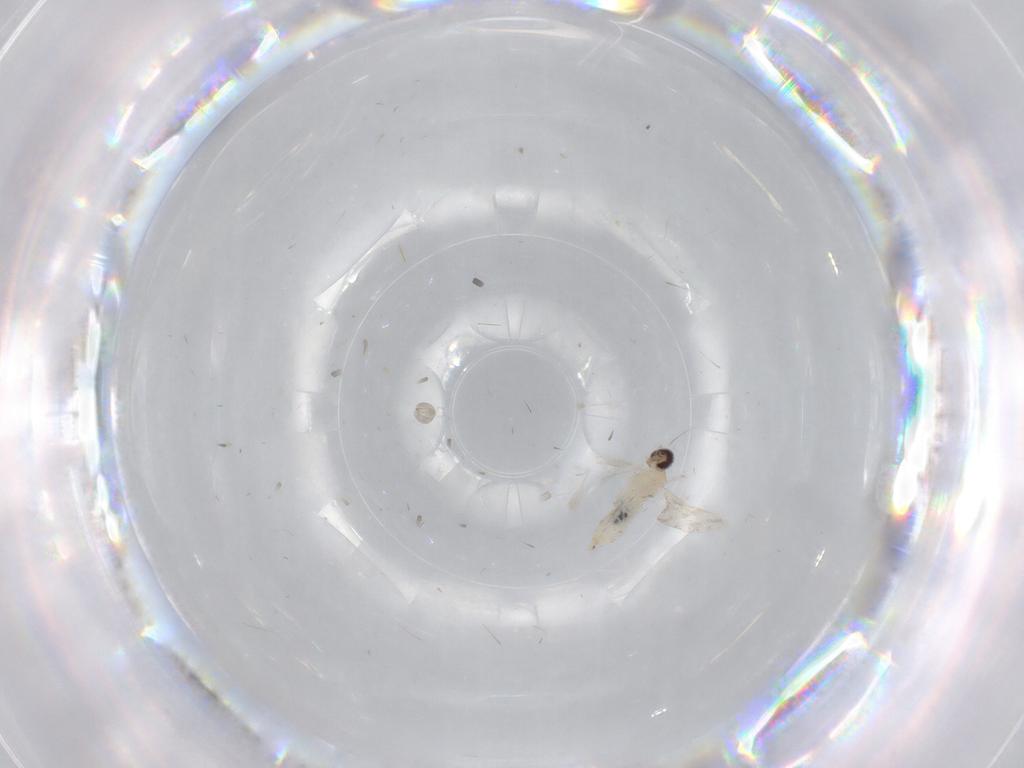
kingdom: Animalia
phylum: Arthropoda
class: Insecta
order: Diptera
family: Cecidomyiidae
